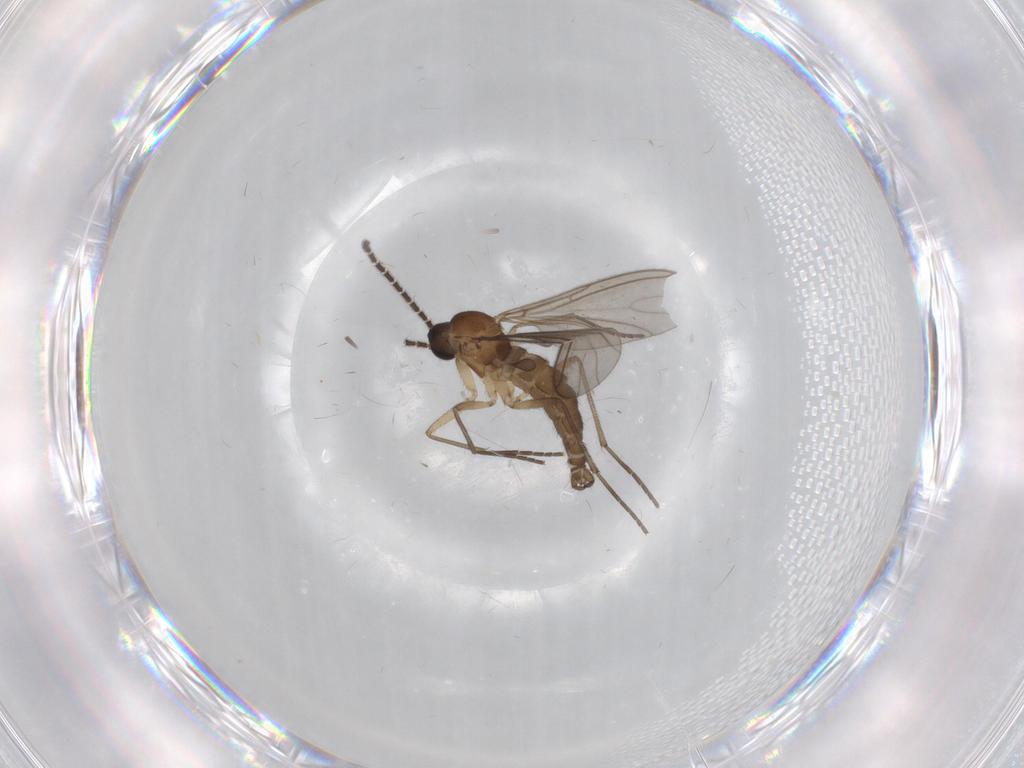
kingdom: Animalia
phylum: Arthropoda
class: Insecta
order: Diptera
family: Sciaridae
